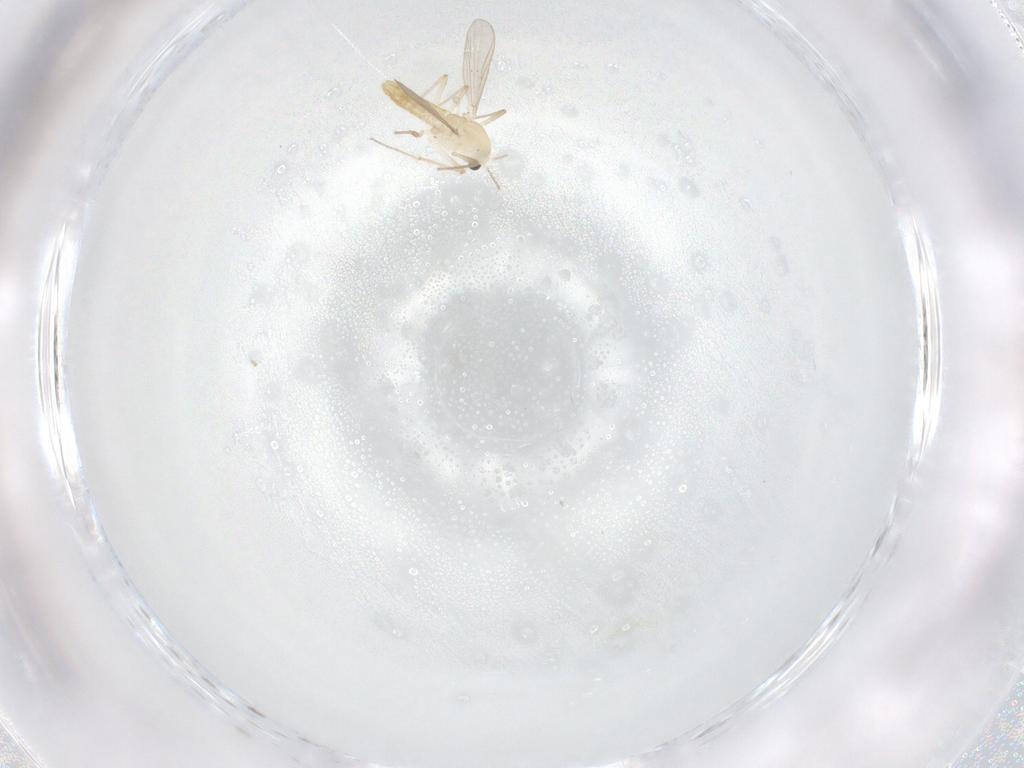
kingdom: Animalia
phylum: Arthropoda
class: Insecta
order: Diptera
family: Chironomidae
